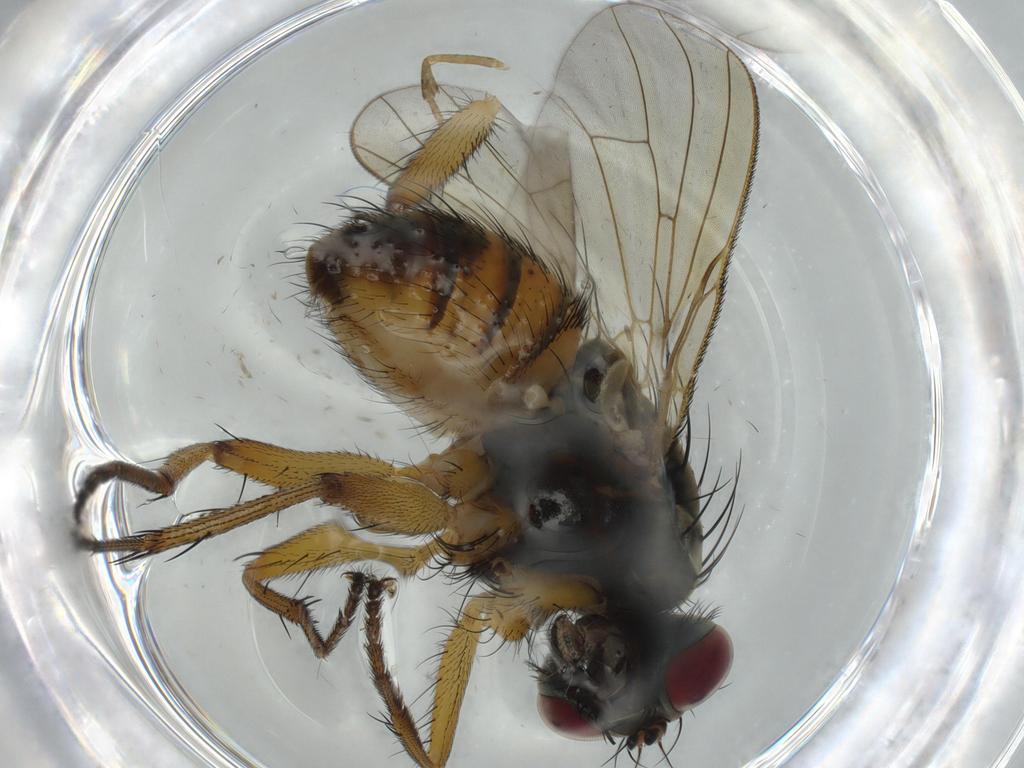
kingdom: Animalia
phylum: Arthropoda
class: Insecta
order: Diptera
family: Muscidae
